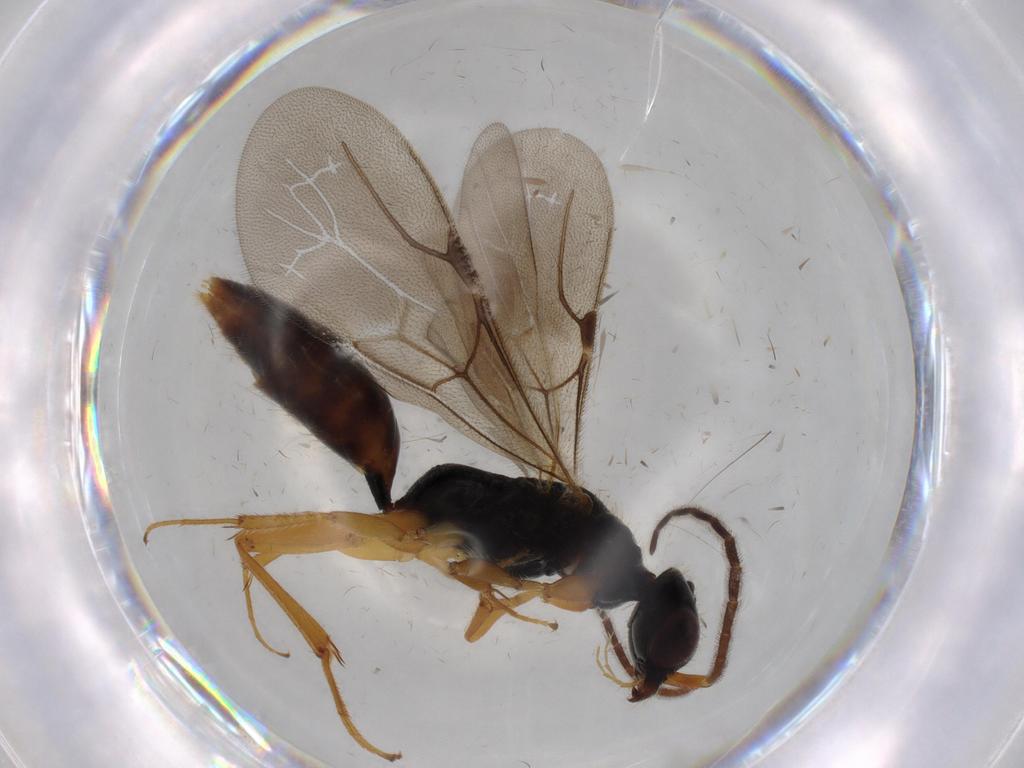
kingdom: Animalia
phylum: Arthropoda
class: Insecta
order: Hymenoptera
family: Bethylidae
